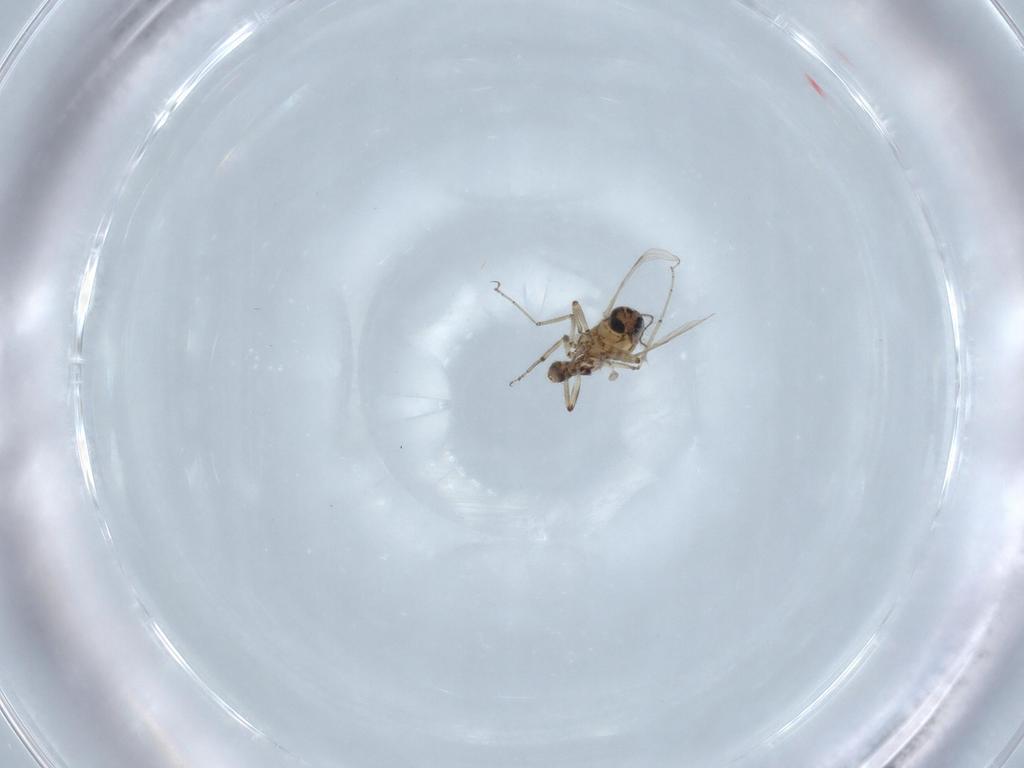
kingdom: Animalia
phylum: Arthropoda
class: Insecta
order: Diptera
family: Ceratopogonidae
